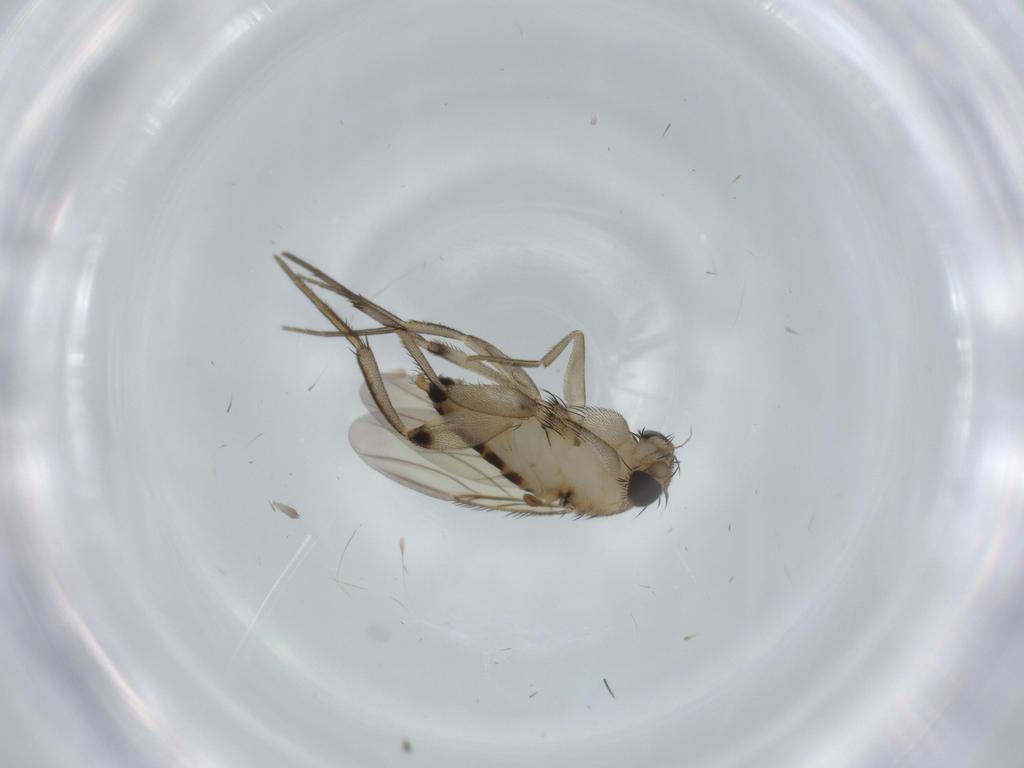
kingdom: Animalia
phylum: Arthropoda
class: Insecta
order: Diptera
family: Phoridae
